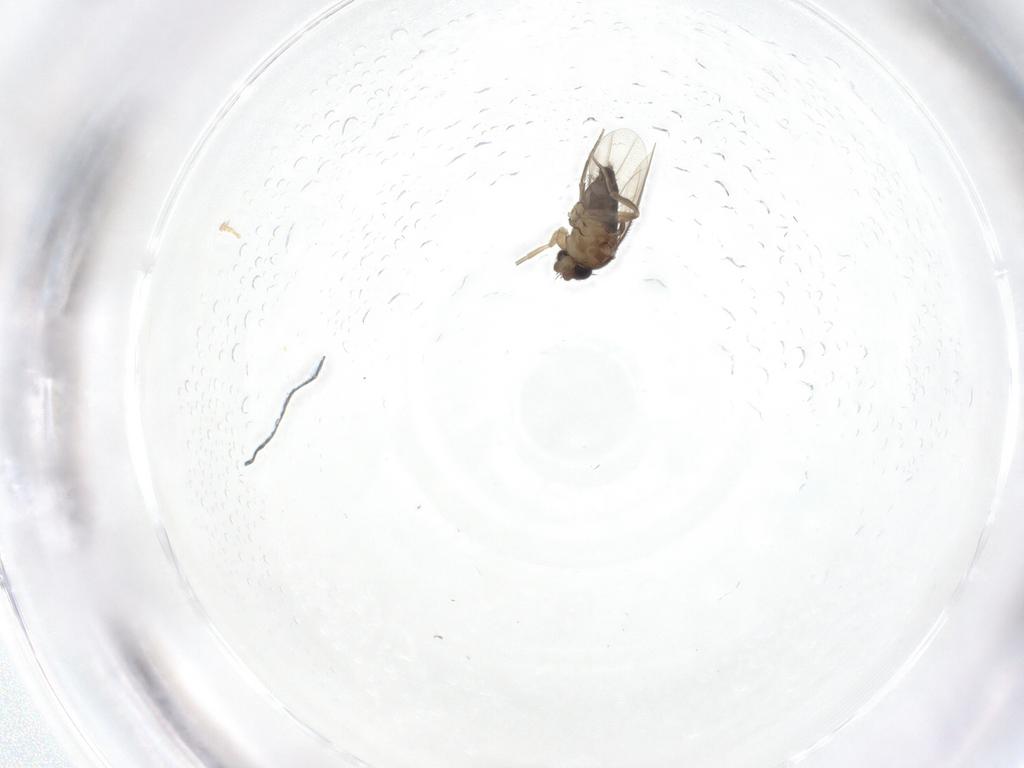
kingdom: Animalia
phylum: Arthropoda
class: Insecta
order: Diptera
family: Phoridae
